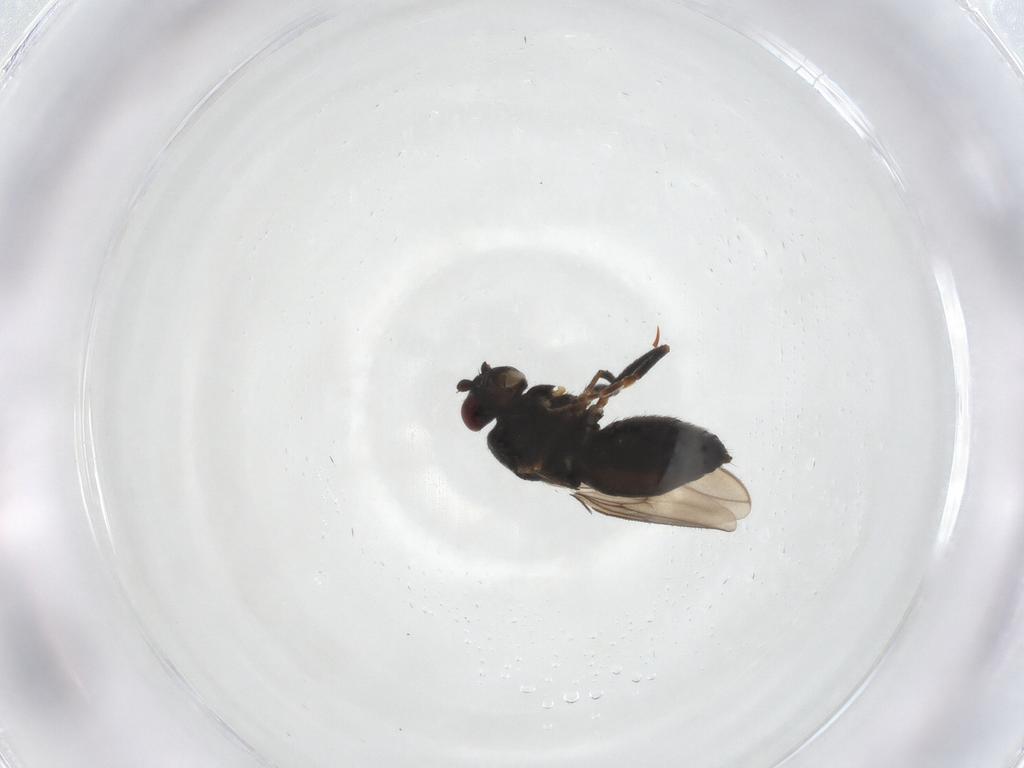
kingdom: Animalia
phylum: Arthropoda
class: Insecta
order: Diptera
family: Sphaeroceridae
